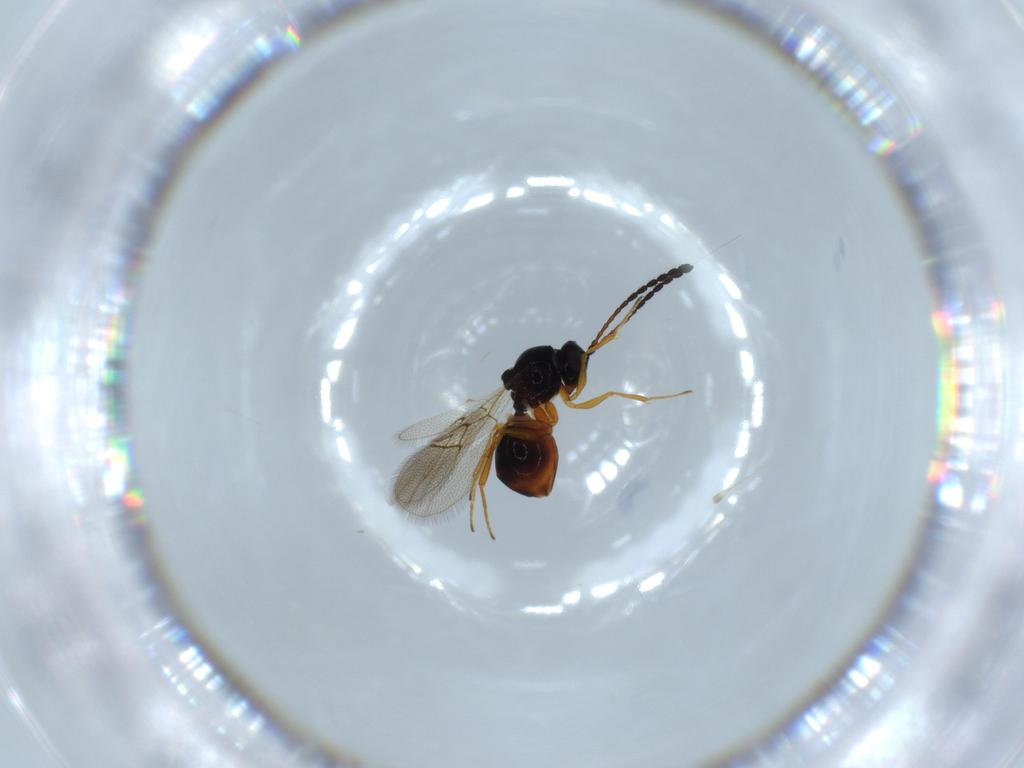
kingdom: Animalia
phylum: Arthropoda
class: Insecta
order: Hymenoptera
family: Figitidae
